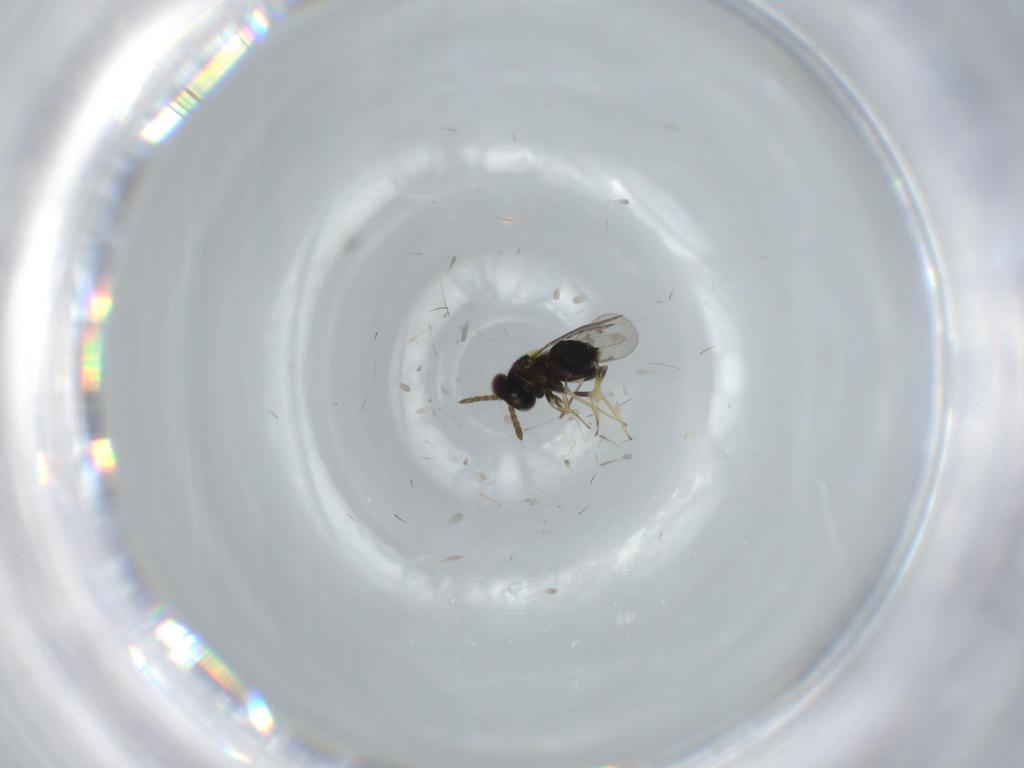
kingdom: Animalia
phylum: Arthropoda
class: Insecta
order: Hymenoptera
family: Aphelinidae
